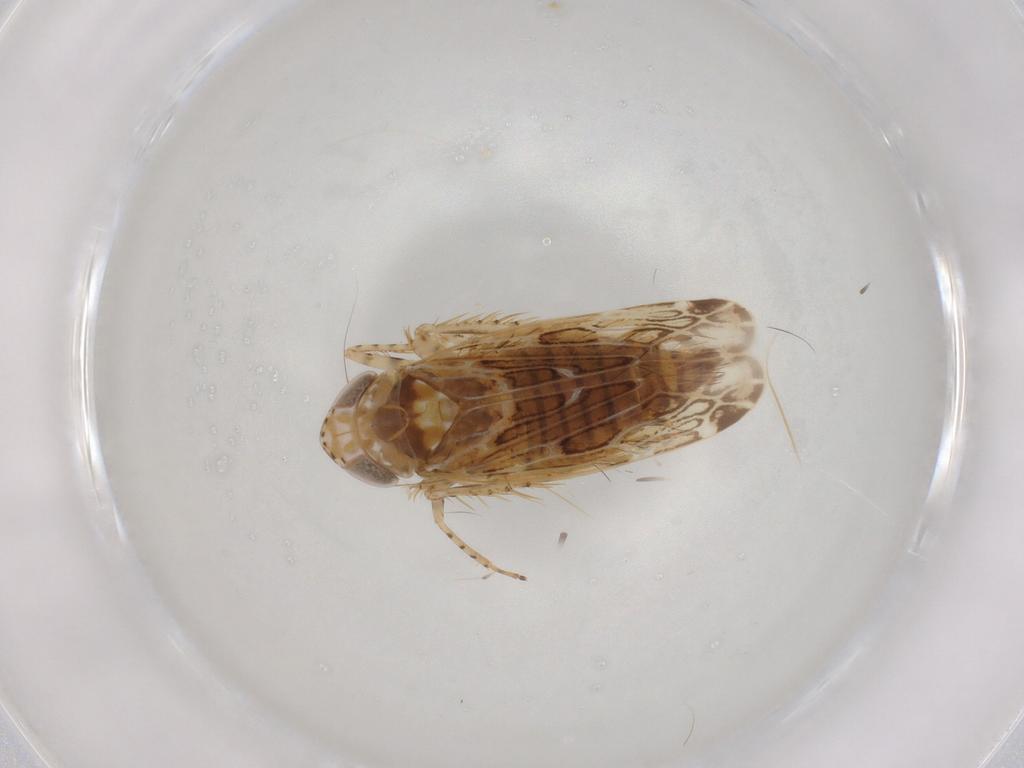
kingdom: Animalia
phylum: Arthropoda
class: Insecta
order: Hemiptera
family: Cicadellidae
